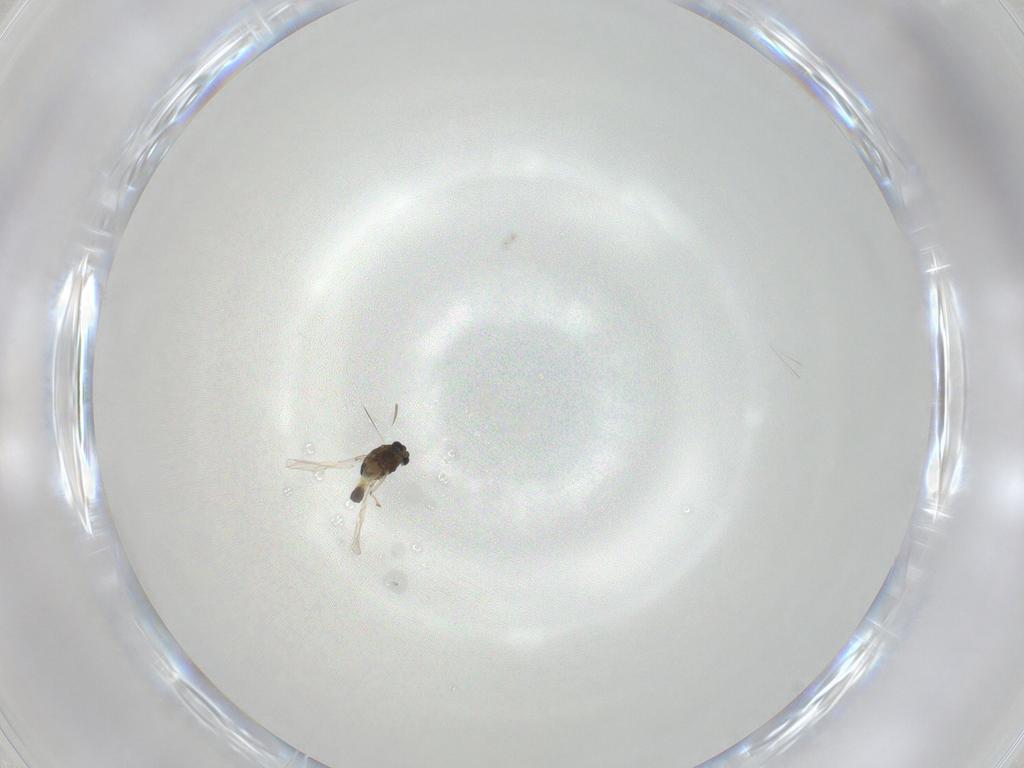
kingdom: Animalia
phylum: Arthropoda
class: Insecta
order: Diptera
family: Chironomidae
